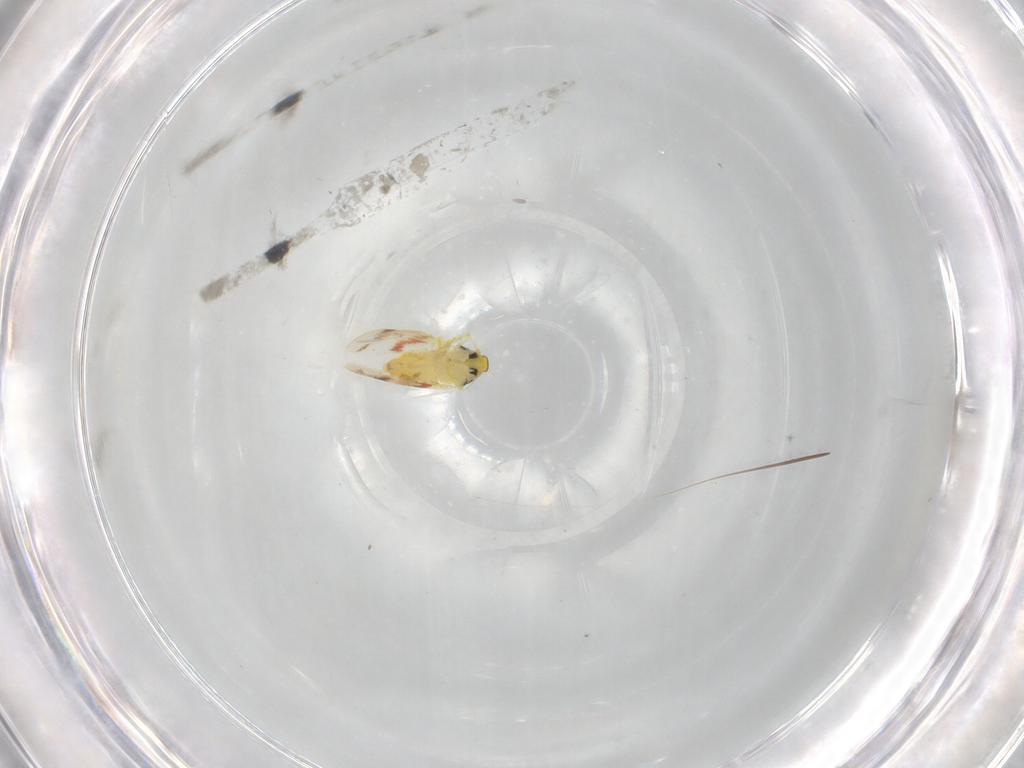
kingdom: Animalia
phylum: Arthropoda
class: Insecta
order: Hemiptera
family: Aleyrodidae
